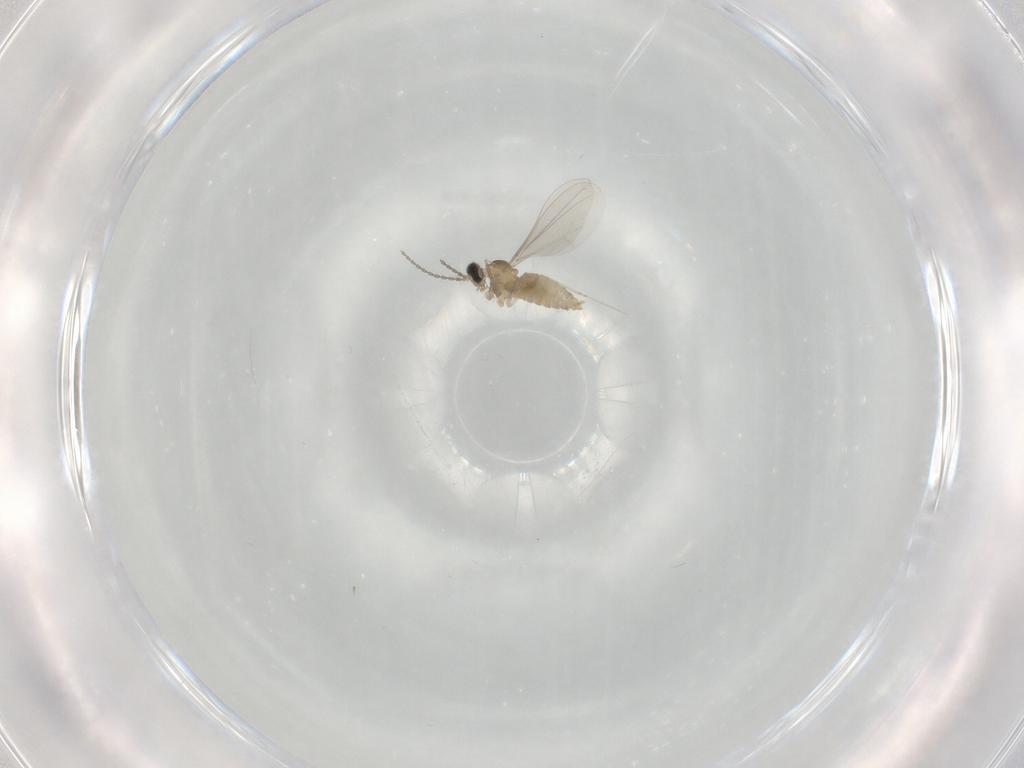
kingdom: Animalia
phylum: Arthropoda
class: Insecta
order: Diptera
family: Cecidomyiidae
